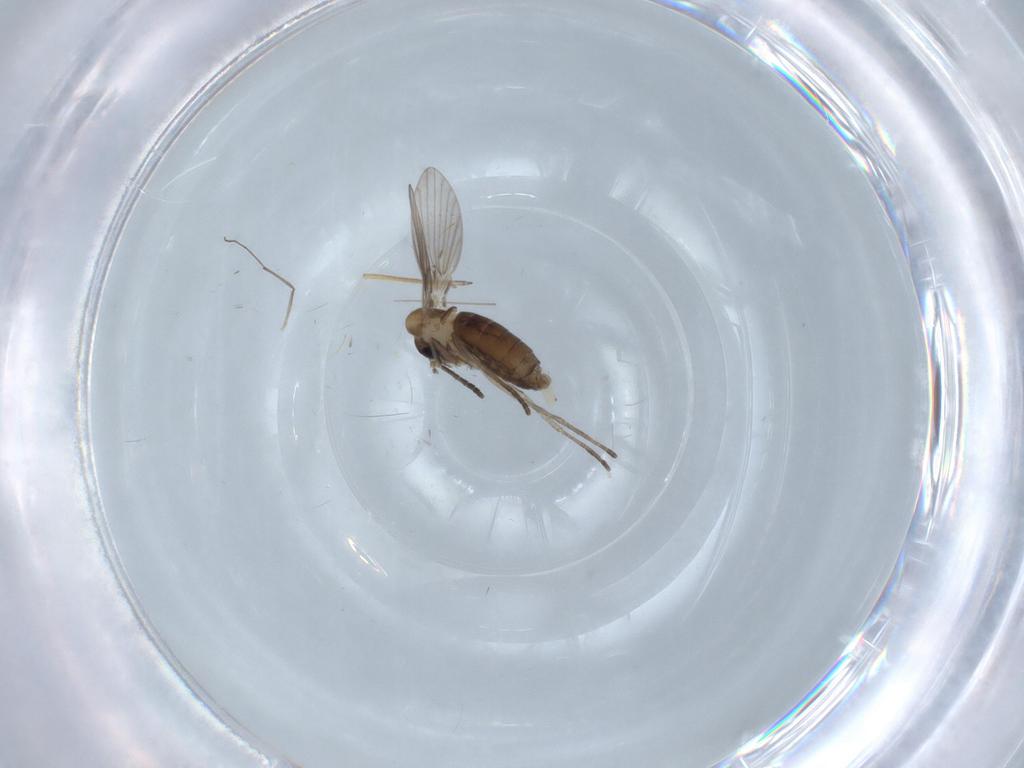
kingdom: Animalia
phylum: Arthropoda
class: Insecta
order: Diptera
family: Psychodidae
